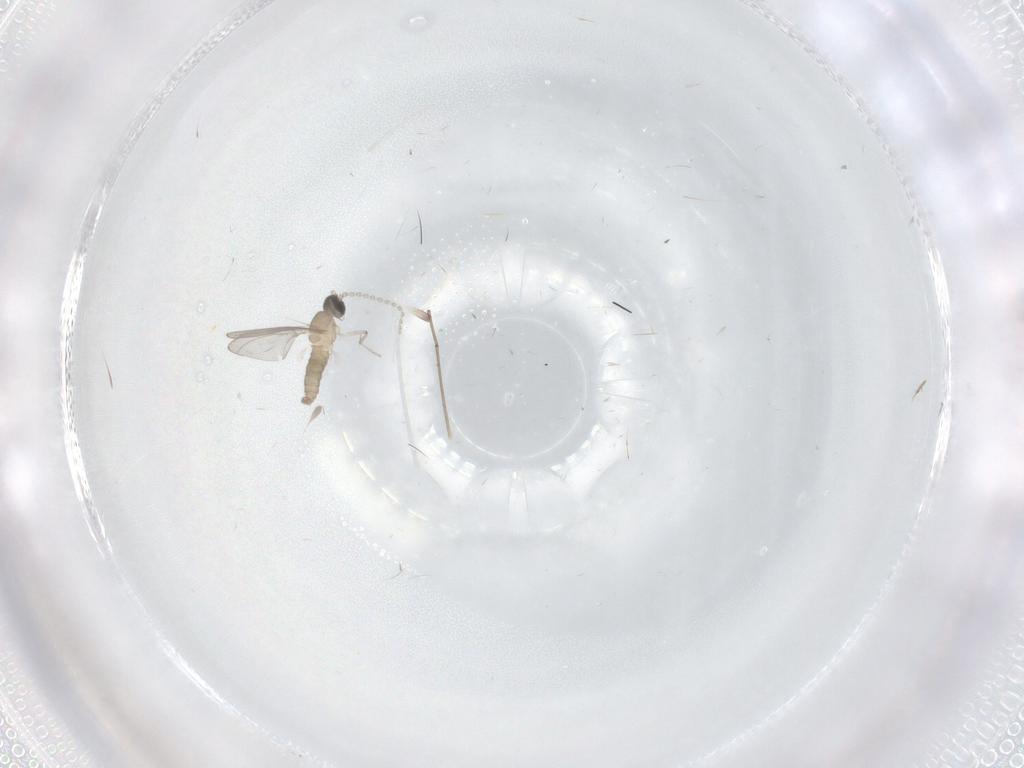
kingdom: Animalia
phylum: Arthropoda
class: Insecta
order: Diptera
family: Cecidomyiidae
